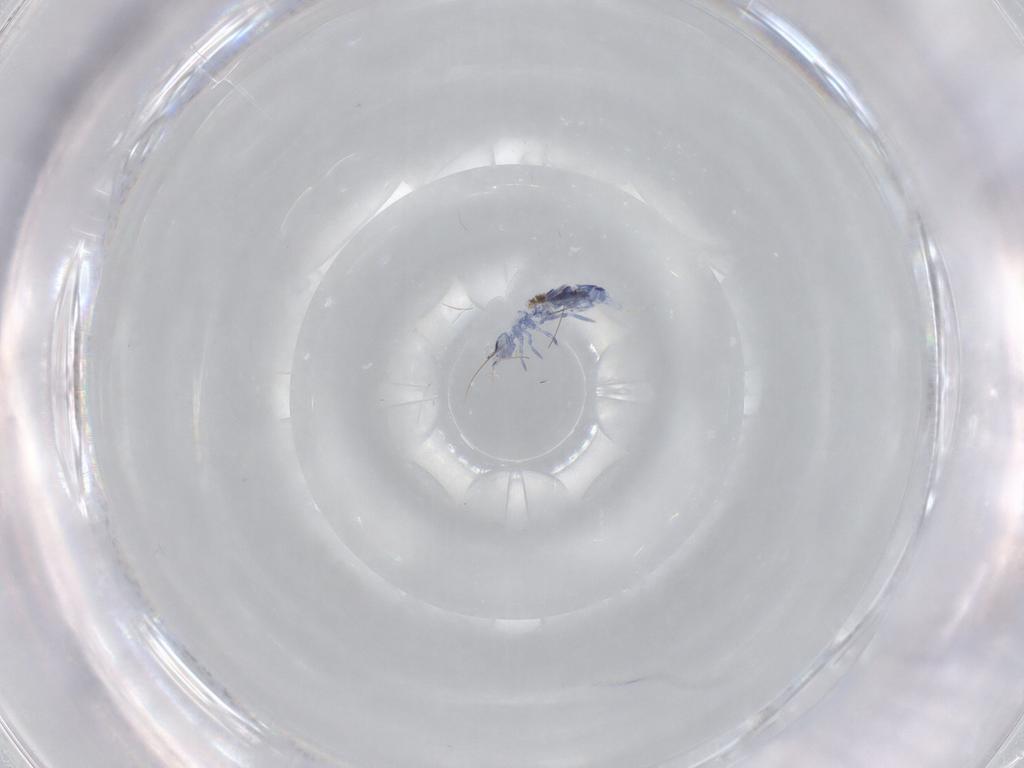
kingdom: Animalia
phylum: Arthropoda
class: Collembola
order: Entomobryomorpha
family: Entomobryidae
